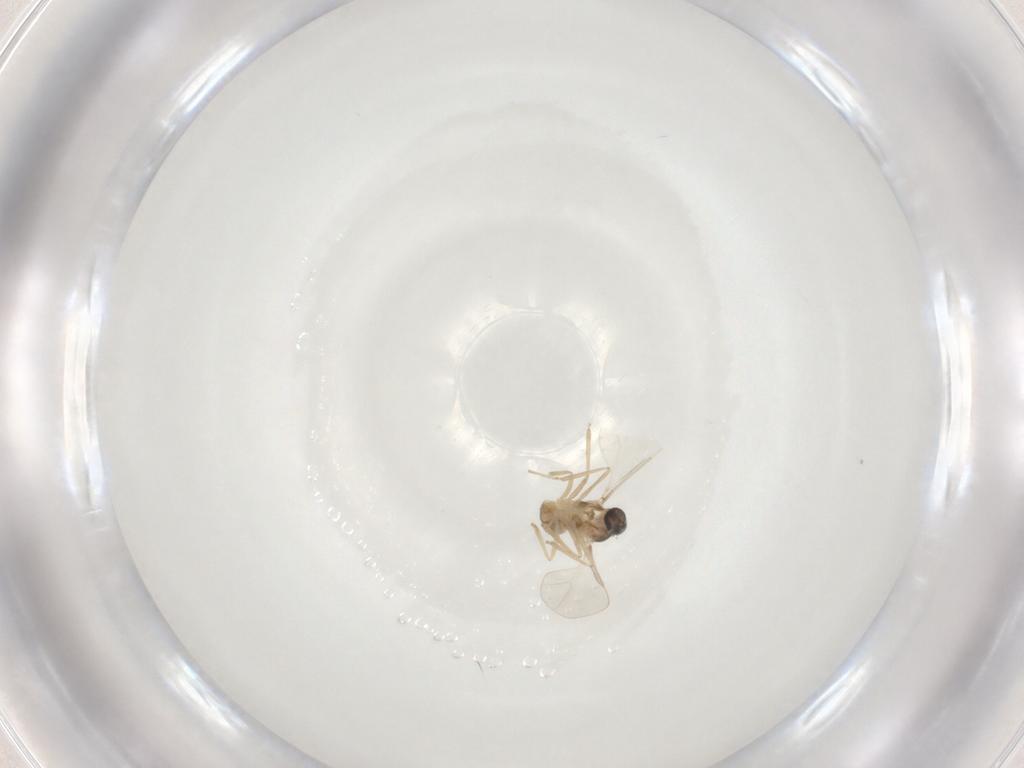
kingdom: Animalia
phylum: Arthropoda
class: Insecta
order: Diptera
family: Cecidomyiidae
